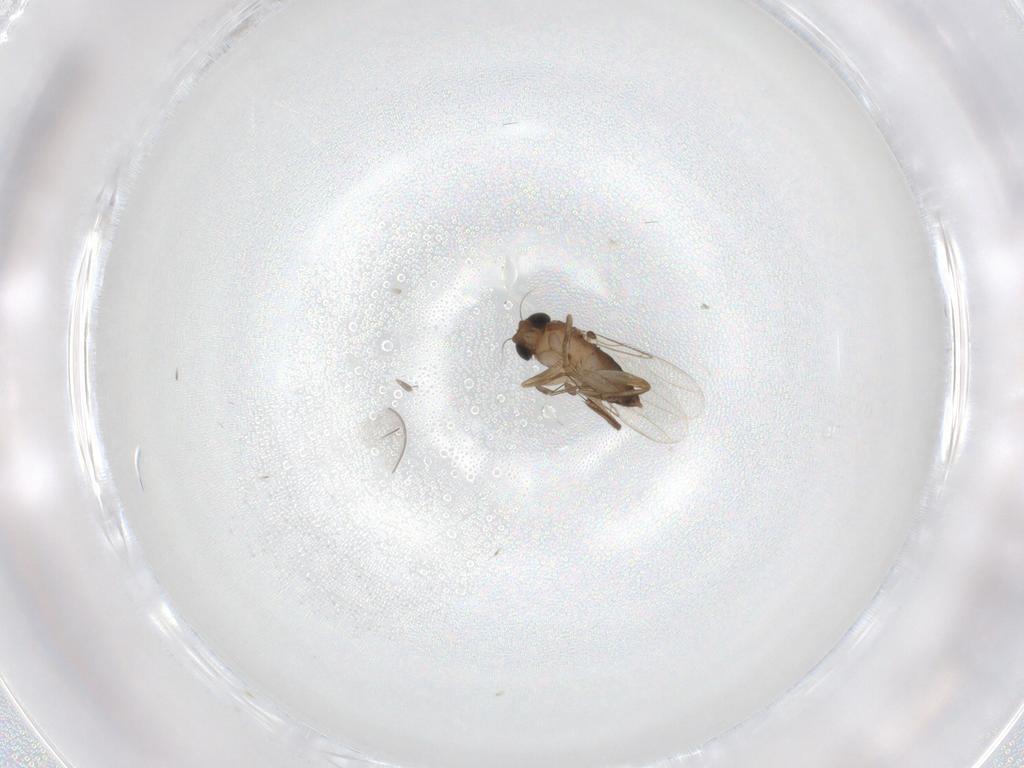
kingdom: Animalia
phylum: Arthropoda
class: Insecta
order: Diptera
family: Phoridae
